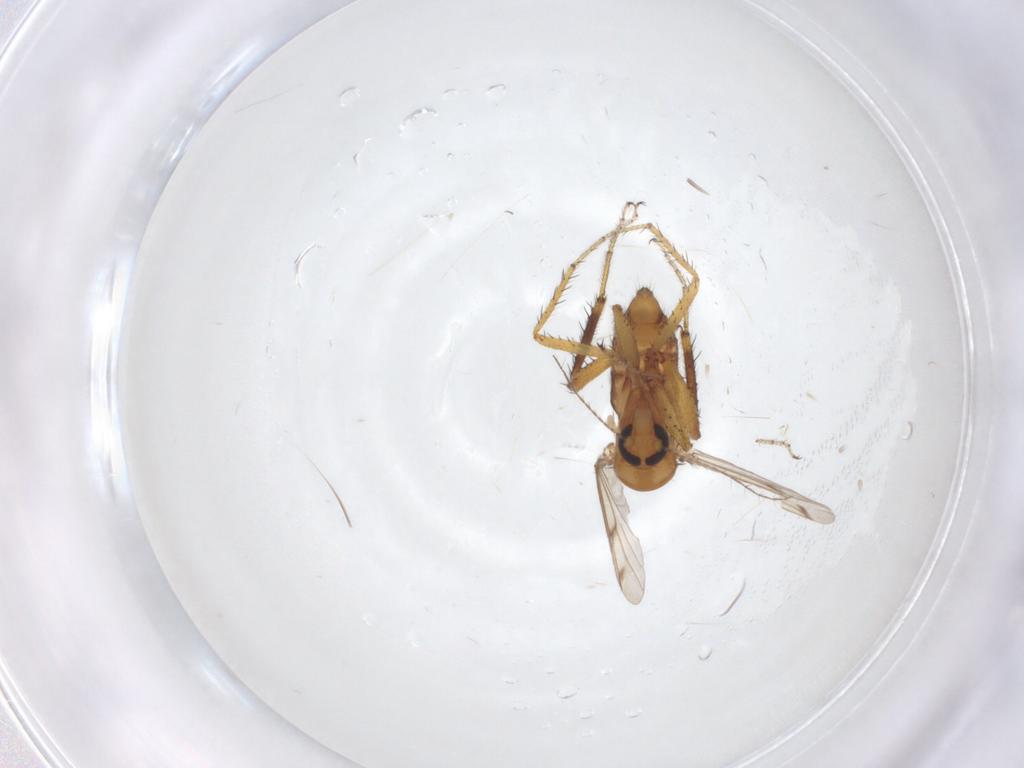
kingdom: Animalia
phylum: Arthropoda
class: Insecta
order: Diptera
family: Ceratopogonidae
